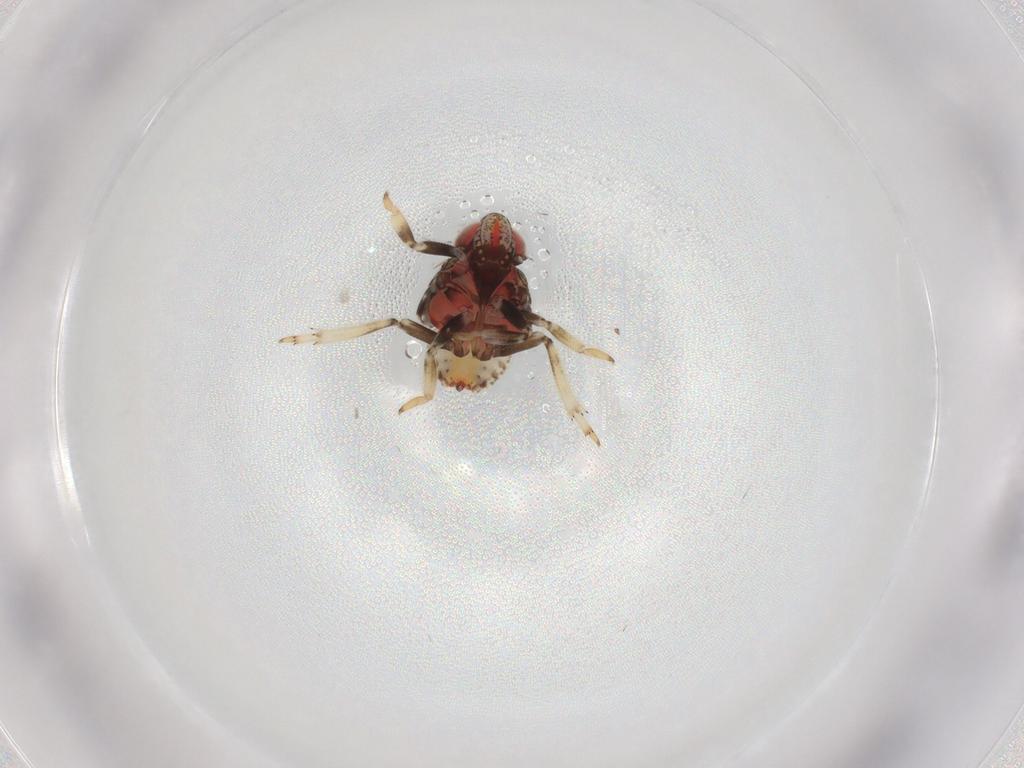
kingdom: Animalia
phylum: Arthropoda
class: Insecta
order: Hemiptera
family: Issidae
